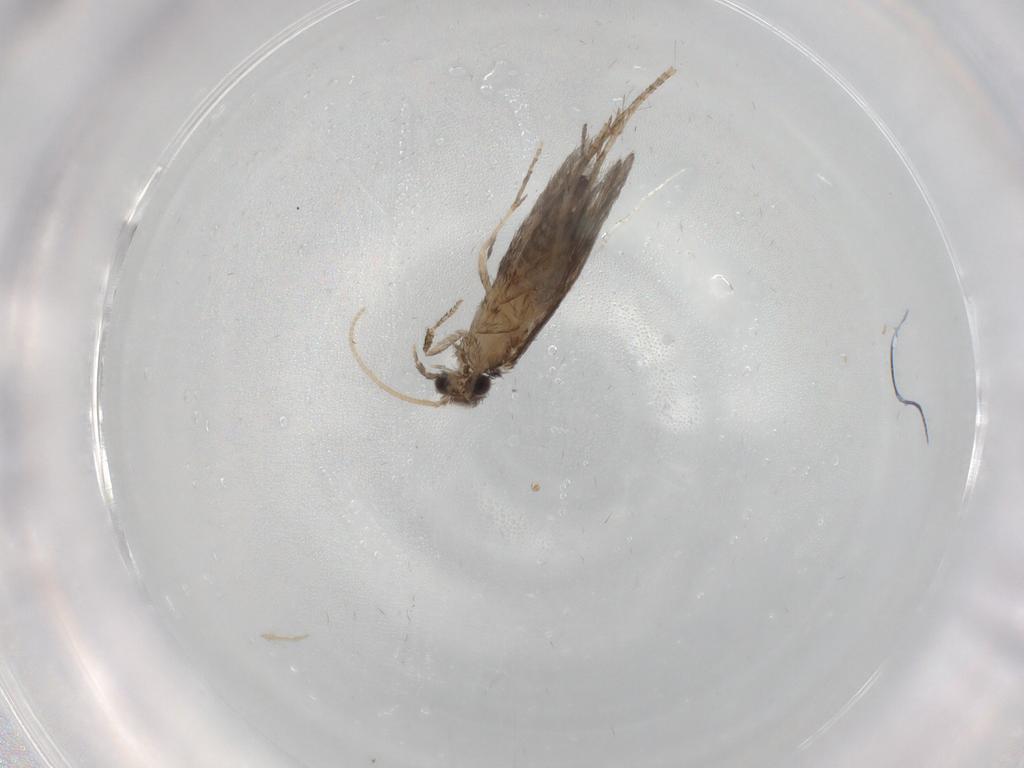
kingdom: Animalia
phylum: Arthropoda
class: Insecta
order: Trichoptera
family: Hydroptilidae
